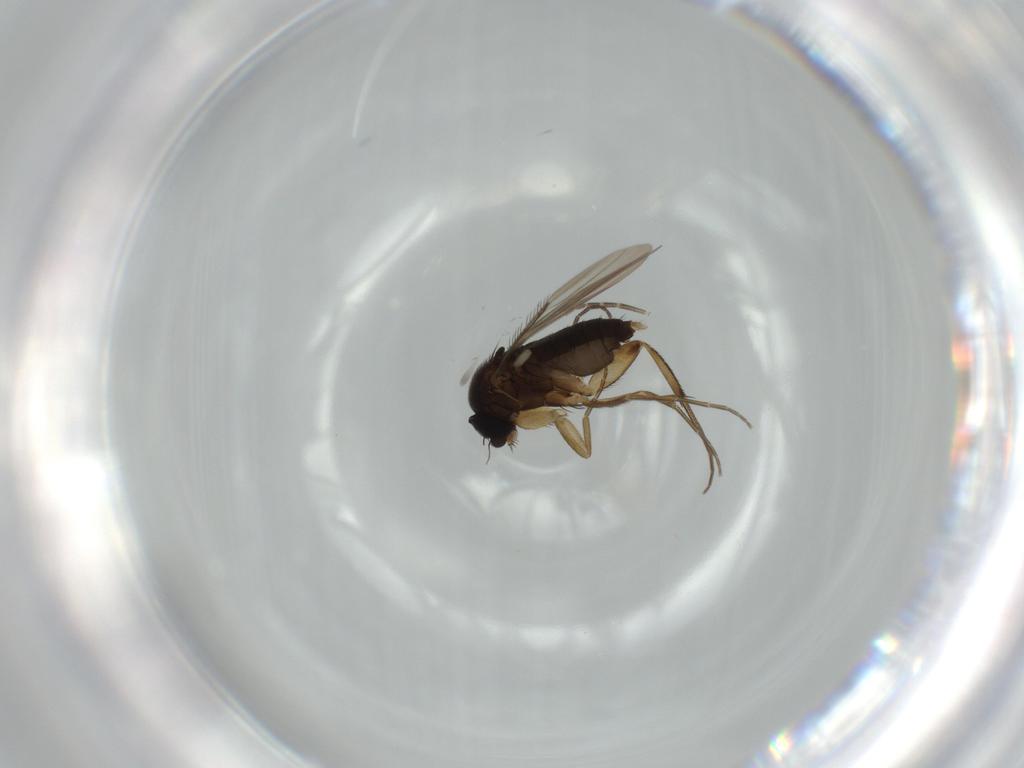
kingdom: Animalia
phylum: Arthropoda
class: Insecta
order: Diptera
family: Phoridae
